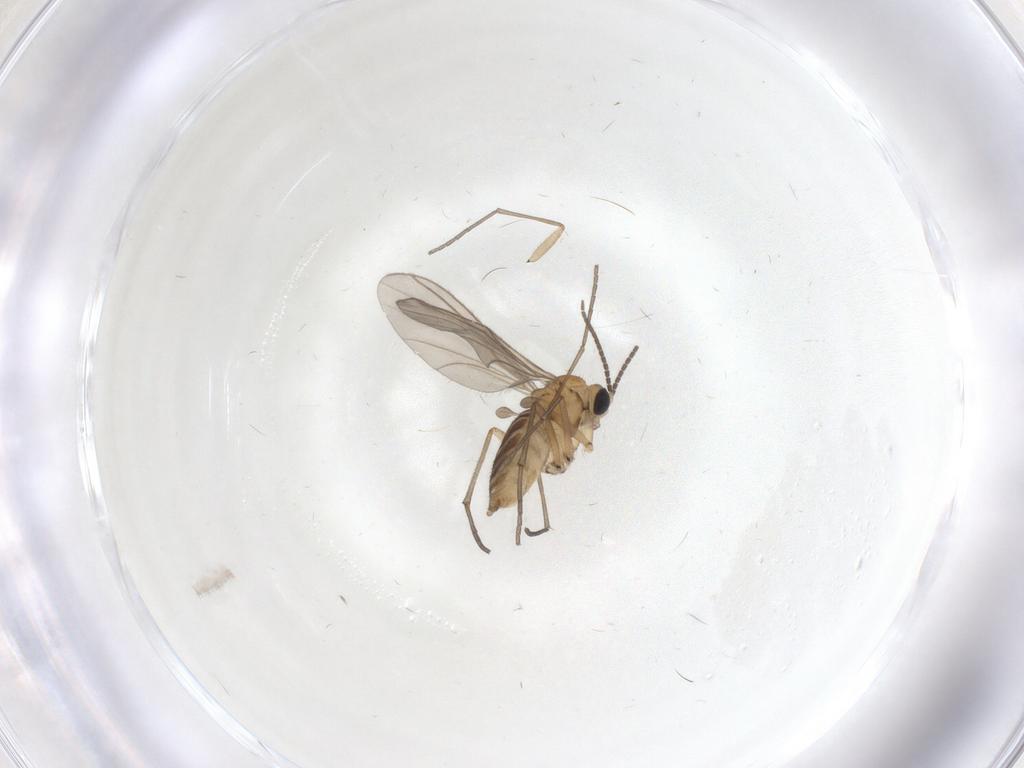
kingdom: Animalia
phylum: Arthropoda
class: Insecta
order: Diptera
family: Sciaridae
